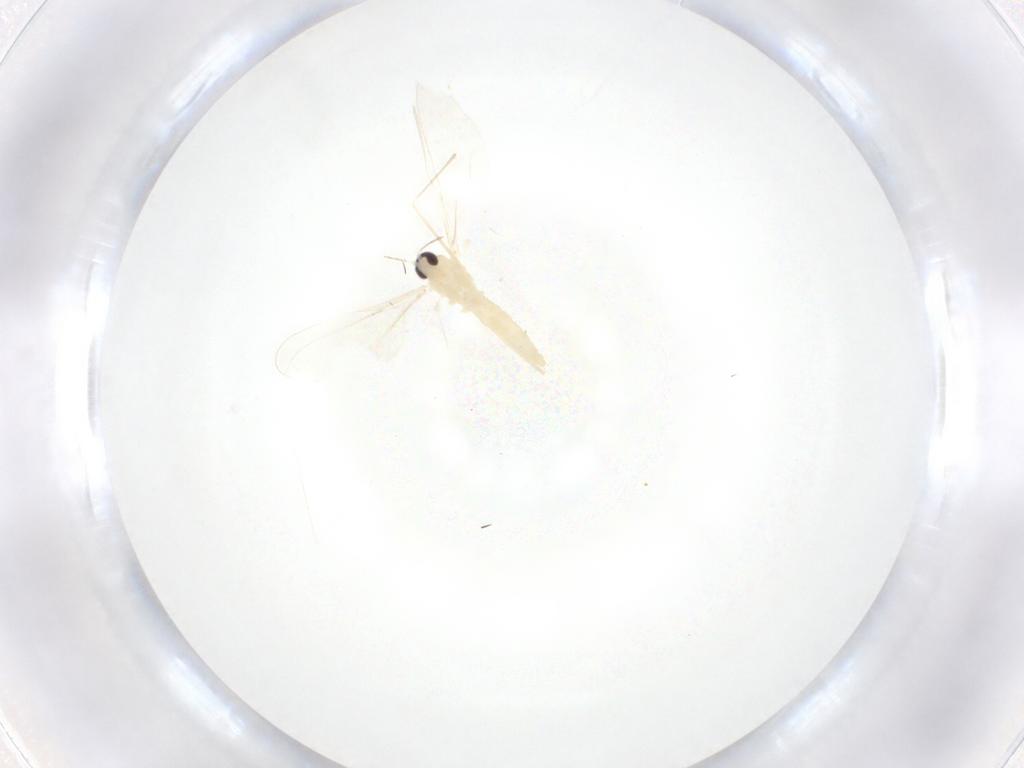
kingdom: Animalia
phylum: Arthropoda
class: Insecta
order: Diptera
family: Cecidomyiidae
